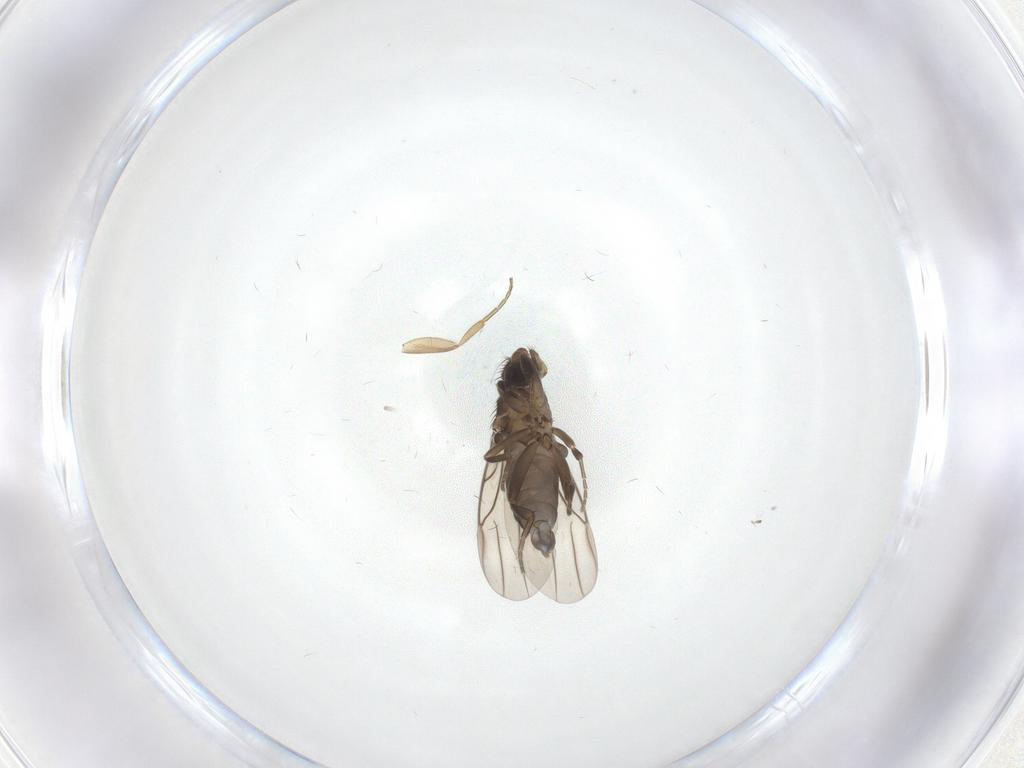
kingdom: Animalia
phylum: Arthropoda
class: Insecta
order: Diptera
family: Phoridae
